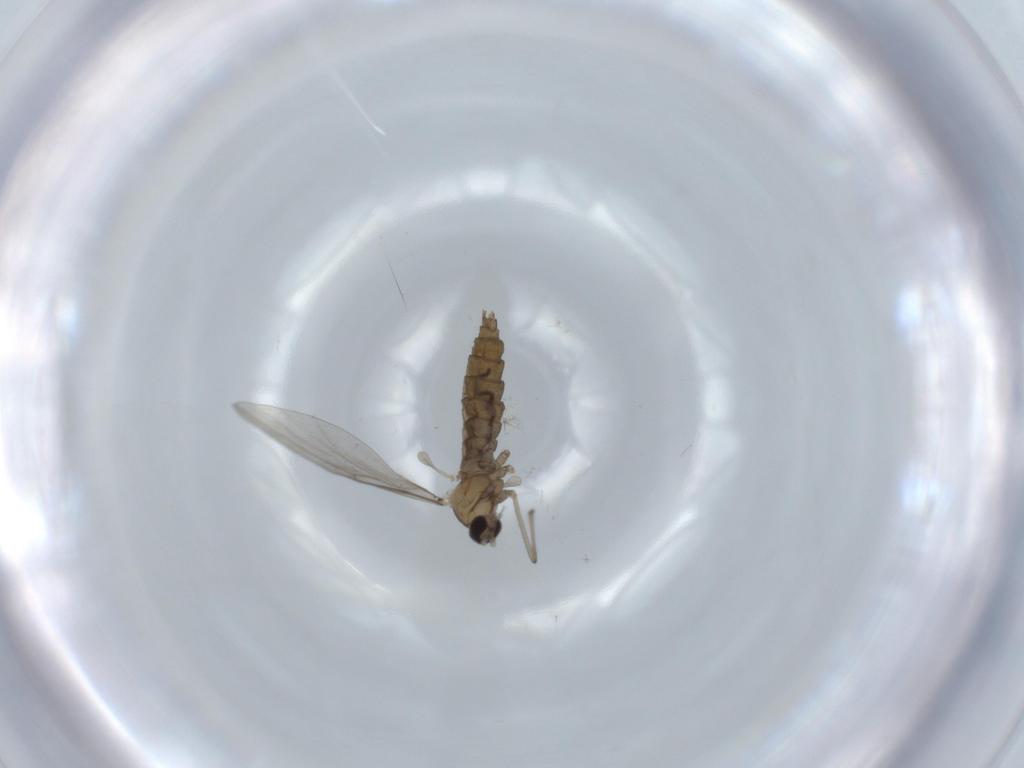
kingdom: Animalia
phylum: Arthropoda
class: Insecta
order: Diptera
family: Cecidomyiidae
